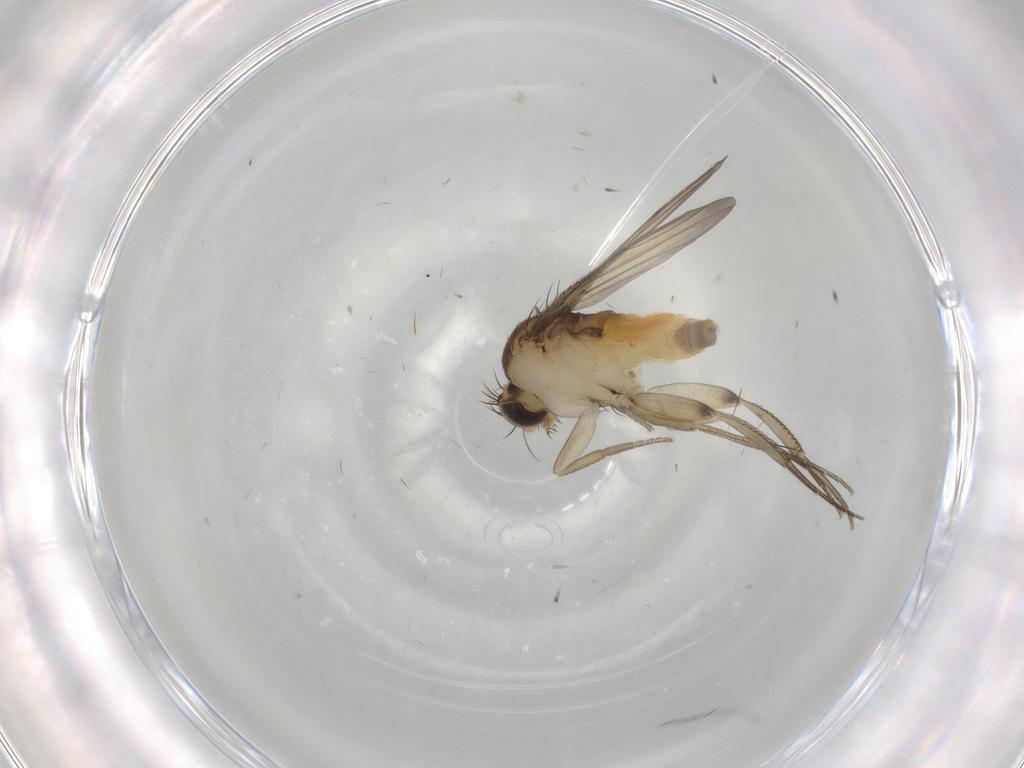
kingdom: Animalia
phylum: Arthropoda
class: Insecta
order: Diptera
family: Phoridae
